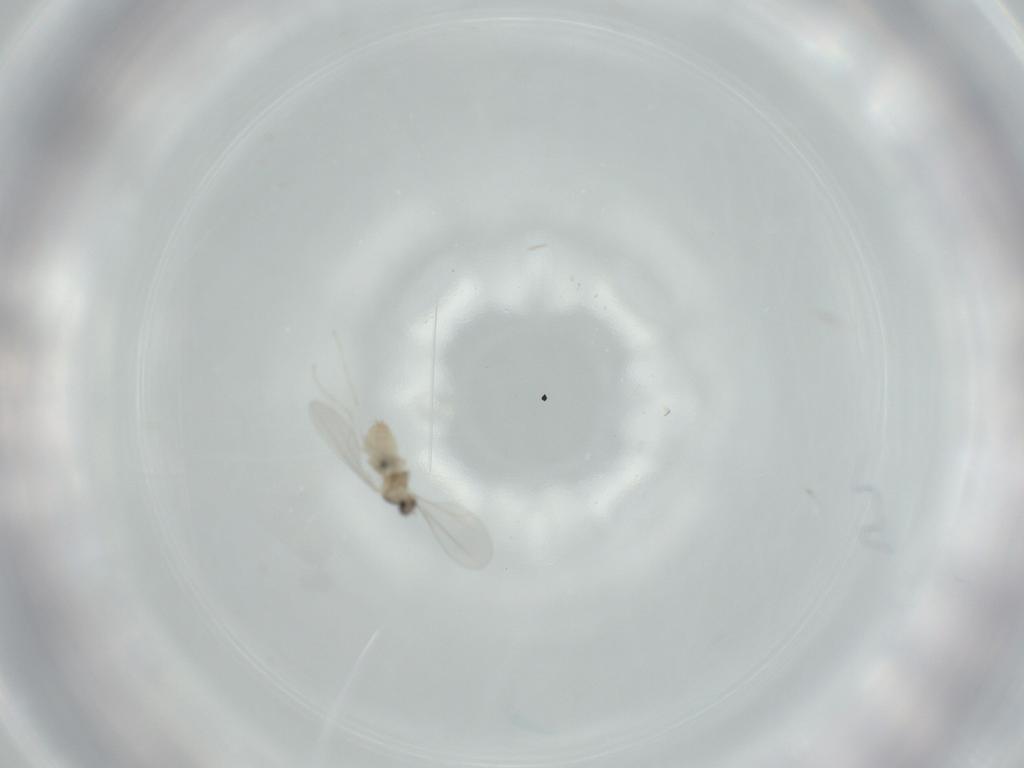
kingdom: Animalia
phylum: Arthropoda
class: Insecta
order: Diptera
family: Cecidomyiidae
